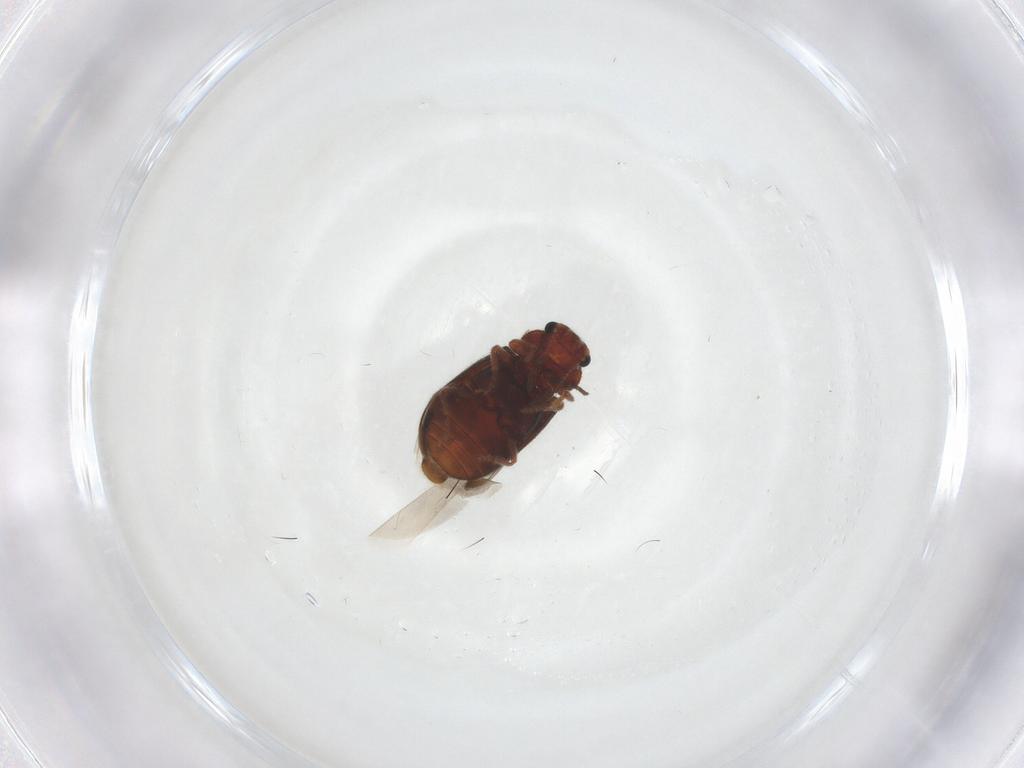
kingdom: Animalia
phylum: Arthropoda
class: Insecta
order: Coleoptera
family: Ptinidae
